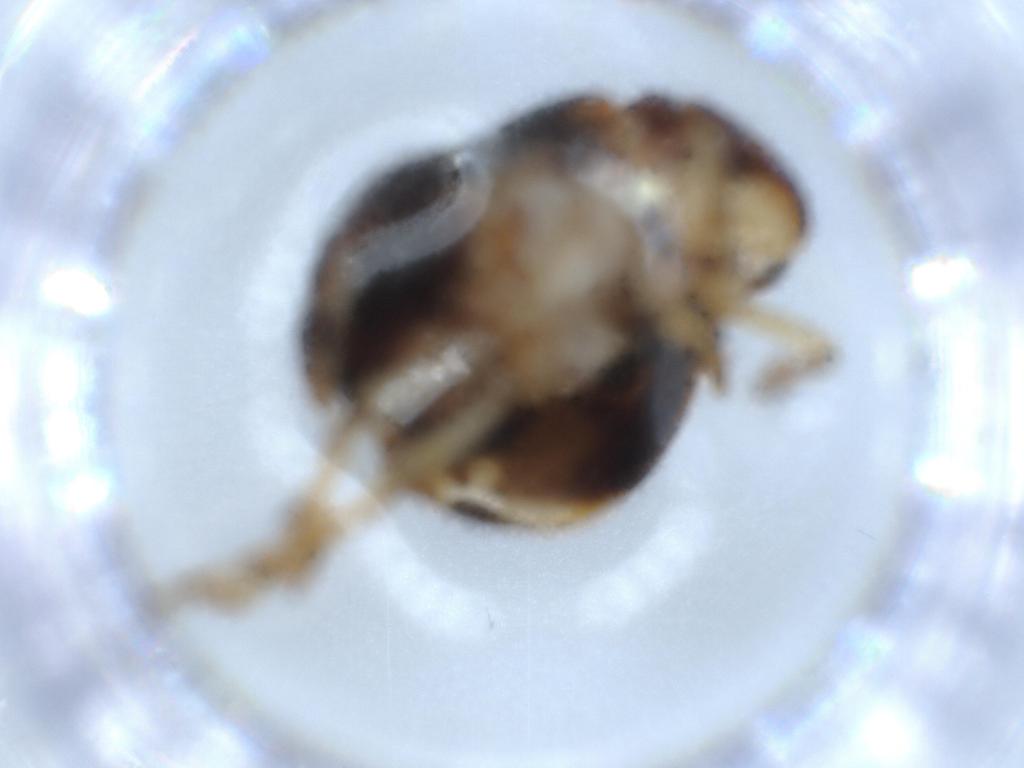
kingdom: Animalia
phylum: Arthropoda
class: Insecta
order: Hemiptera
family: Clastopteridae
